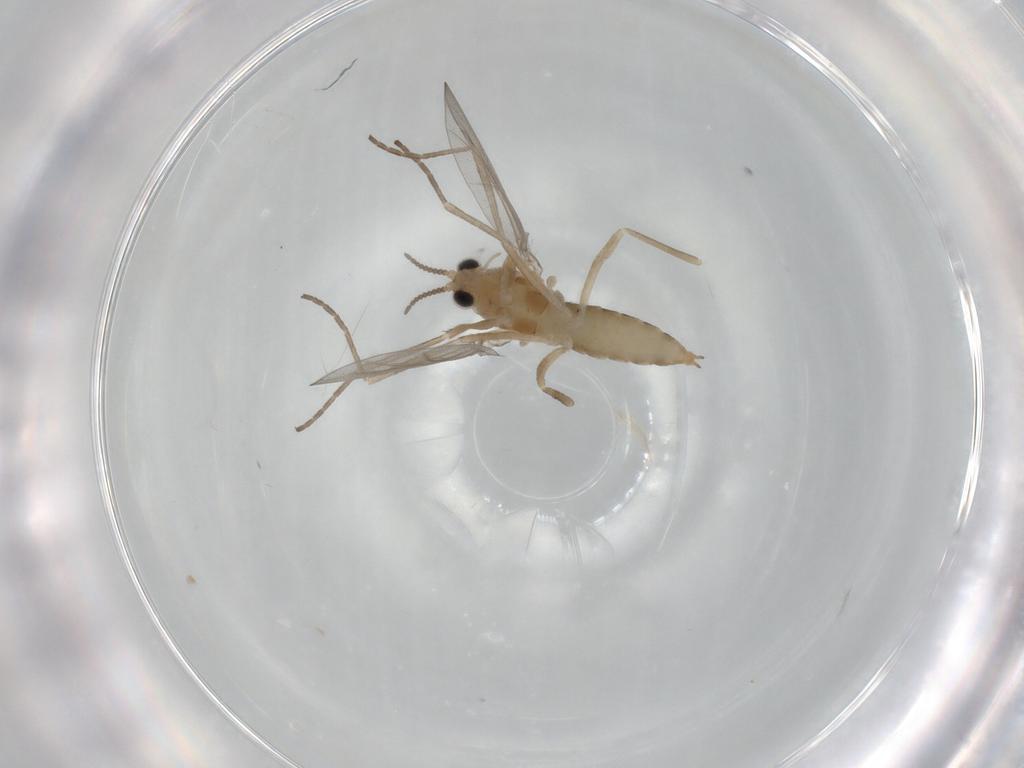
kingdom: Animalia
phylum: Arthropoda
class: Insecta
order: Diptera
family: Cecidomyiidae
